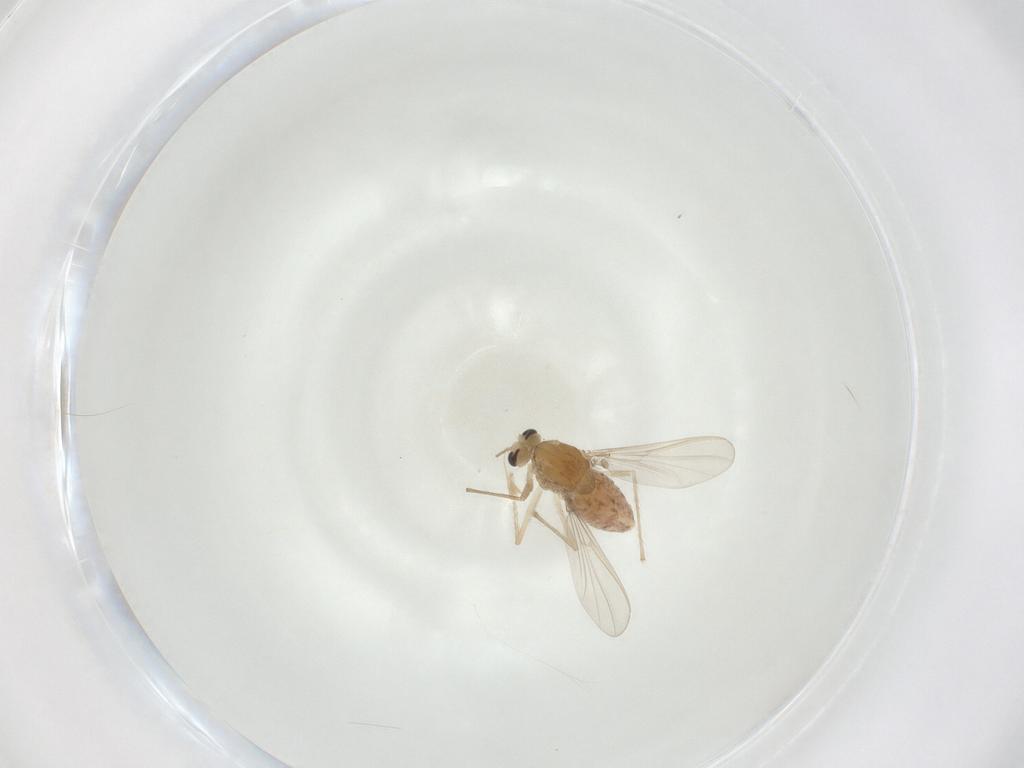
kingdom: Animalia
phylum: Arthropoda
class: Insecta
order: Diptera
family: Chironomidae
